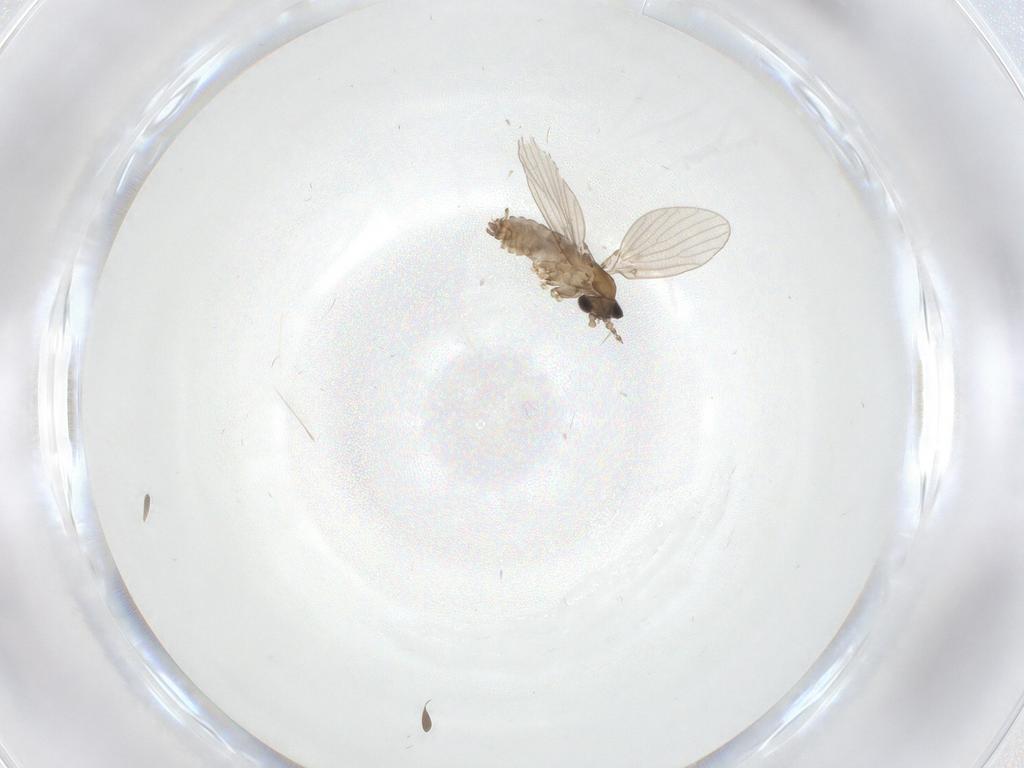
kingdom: Animalia
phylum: Arthropoda
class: Insecta
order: Diptera
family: Psychodidae
